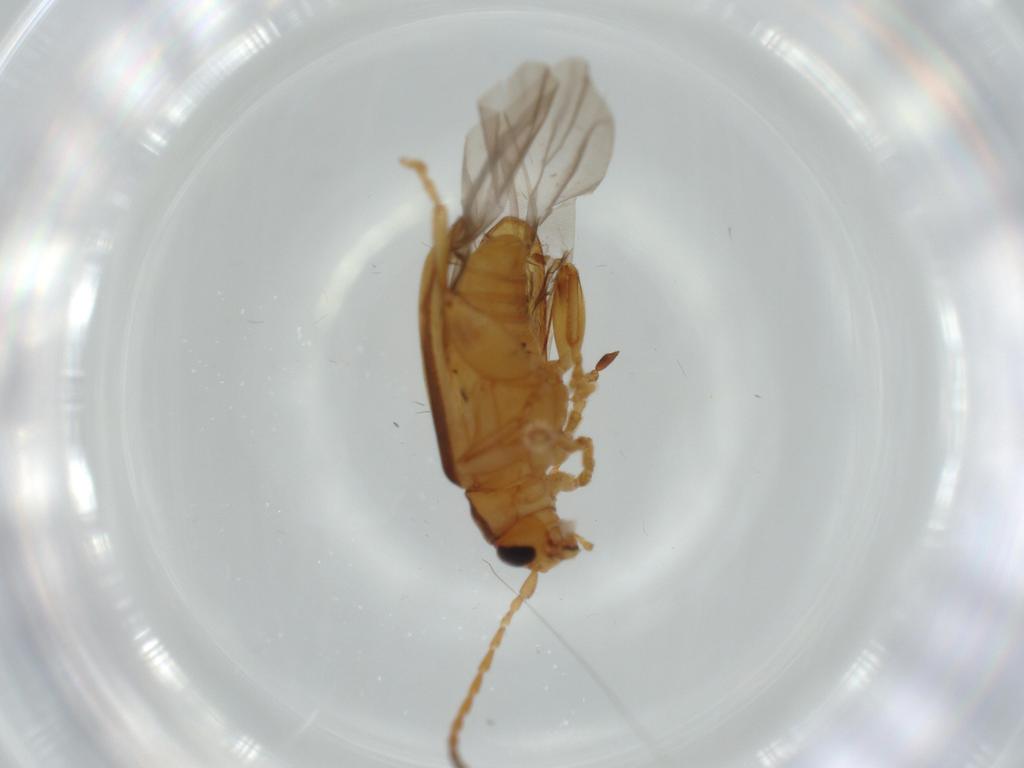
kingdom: Animalia
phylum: Arthropoda
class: Insecta
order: Coleoptera
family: Chrysomelidae
